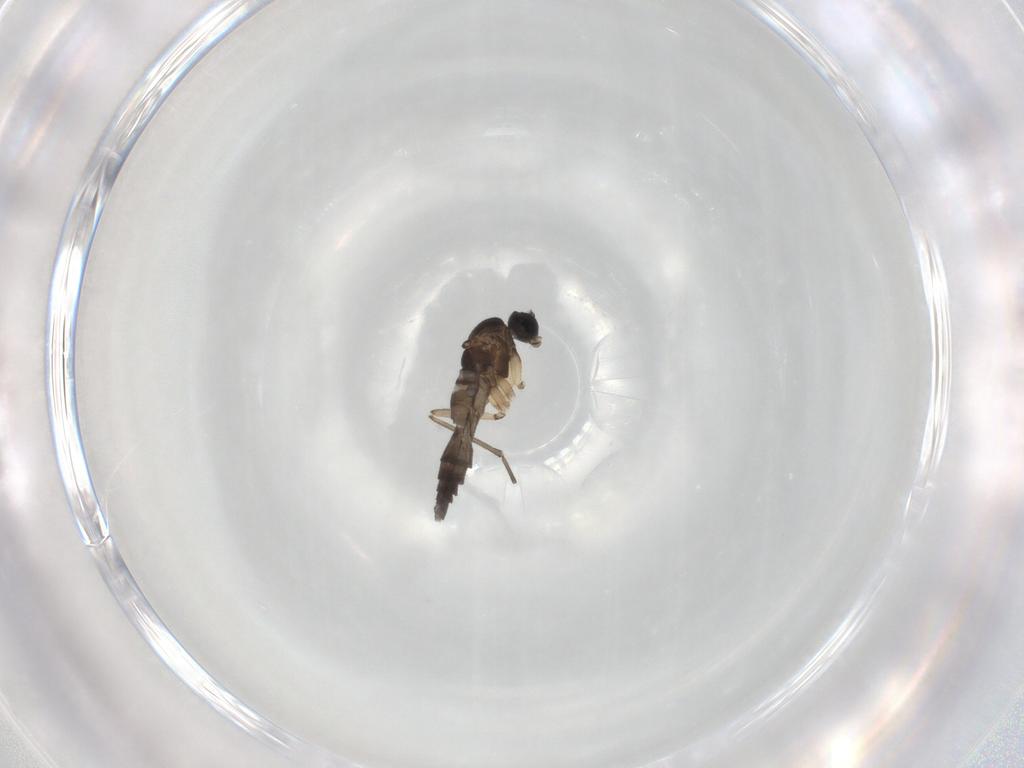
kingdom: Animalia
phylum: Arthropoda
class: Insecta
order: Diptera
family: Sciaridae
